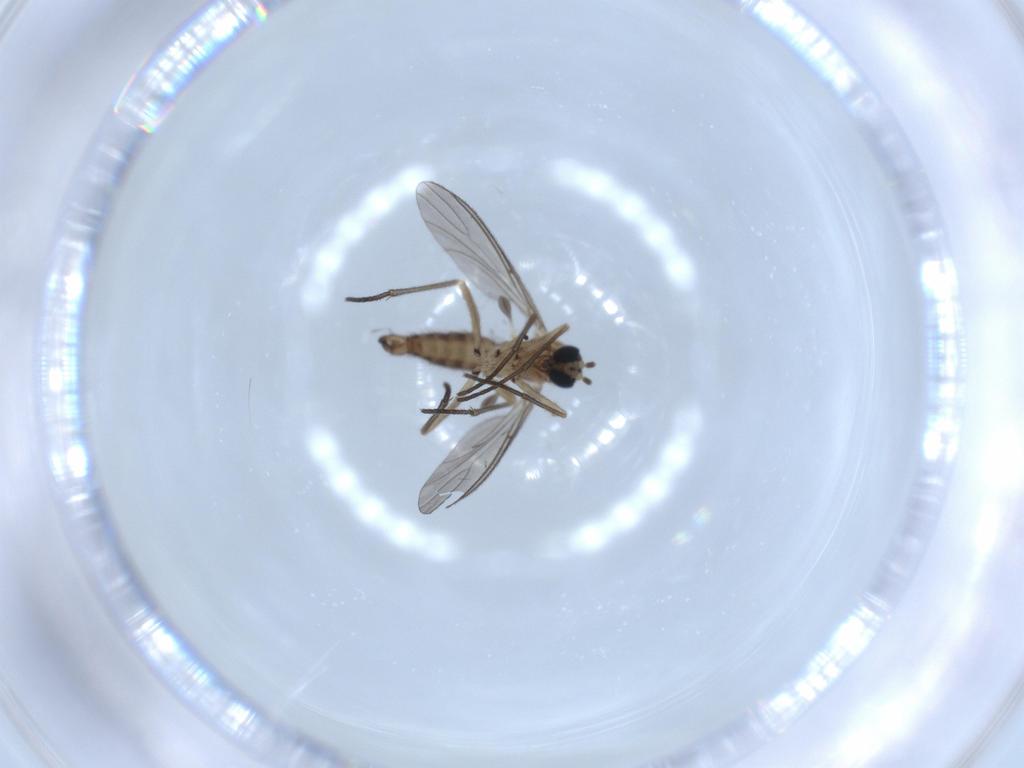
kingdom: Animalia
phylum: Arthropoda
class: Insecta
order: Diptera
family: Sciaridae
